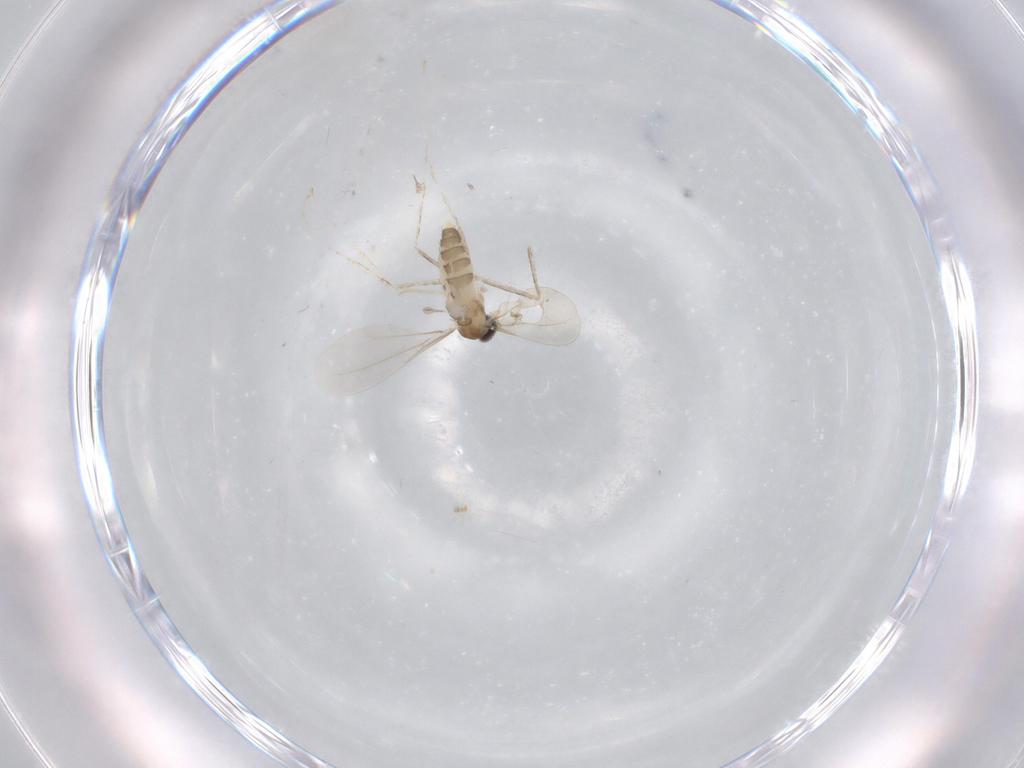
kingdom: Animalia
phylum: Arthropoda
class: Insecta
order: Diptera
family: Cecidomyiidae
